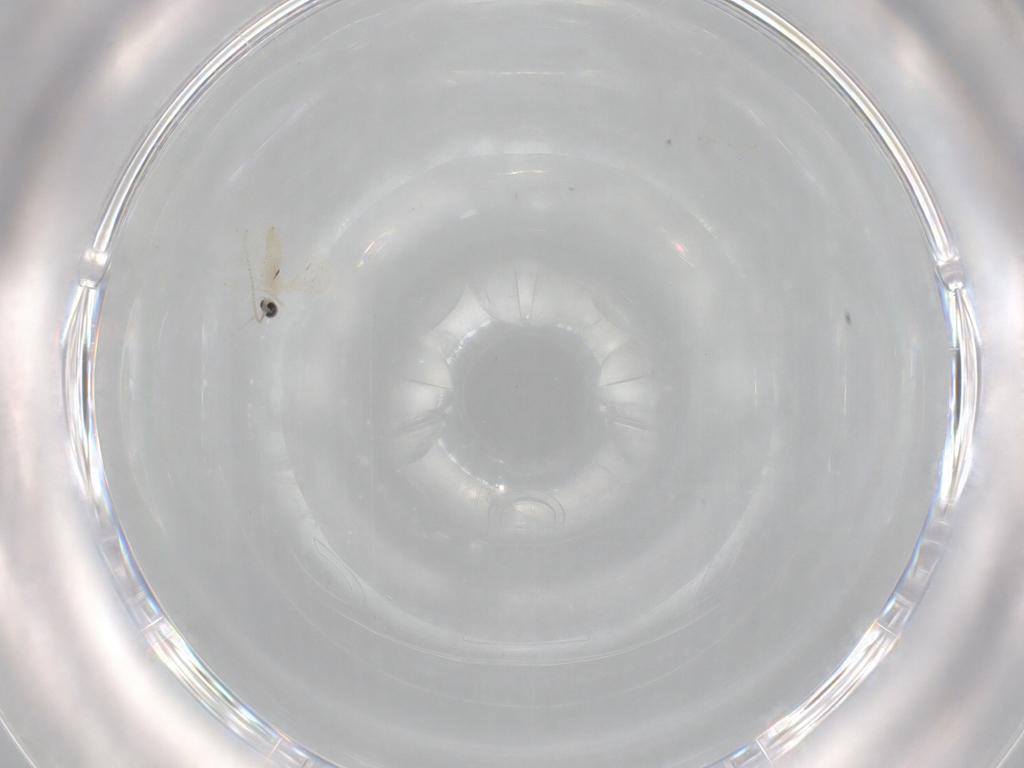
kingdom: Animalia
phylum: Arthropoda
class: Insecta
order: Diptera
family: Cecidomyiidae
